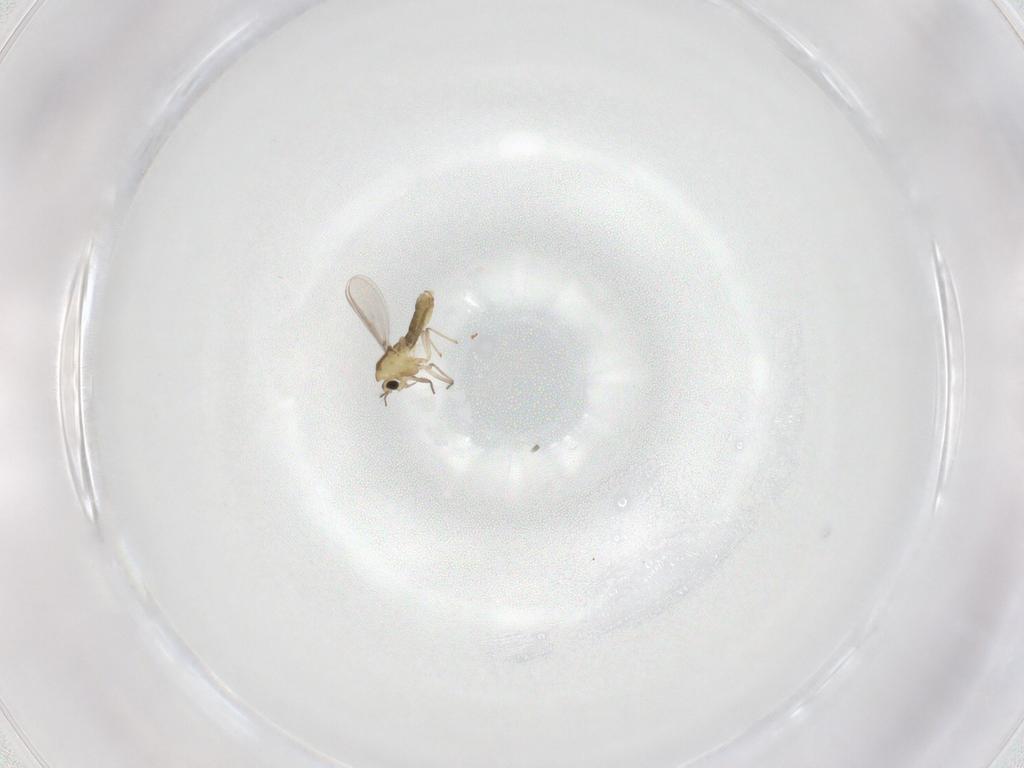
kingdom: Animalia
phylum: Arthropoda
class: Insecta
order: Diptera
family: Chironomidae
